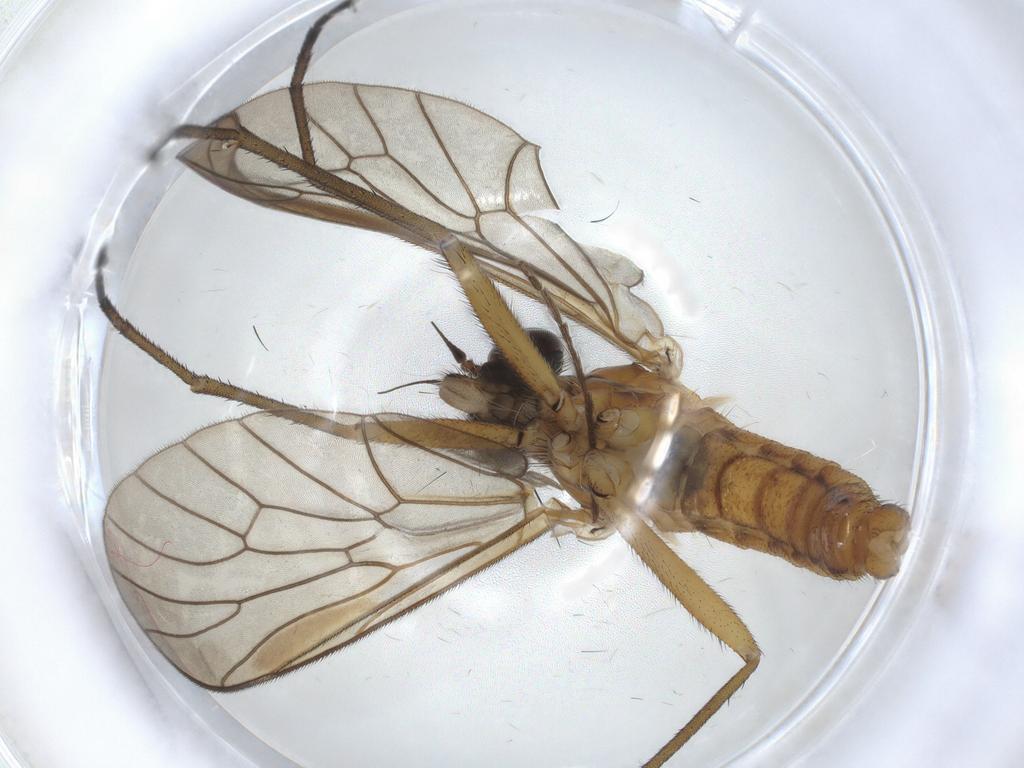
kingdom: Animalia
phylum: Arthropoda
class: Insecta
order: Diptera
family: Rhagionidae
